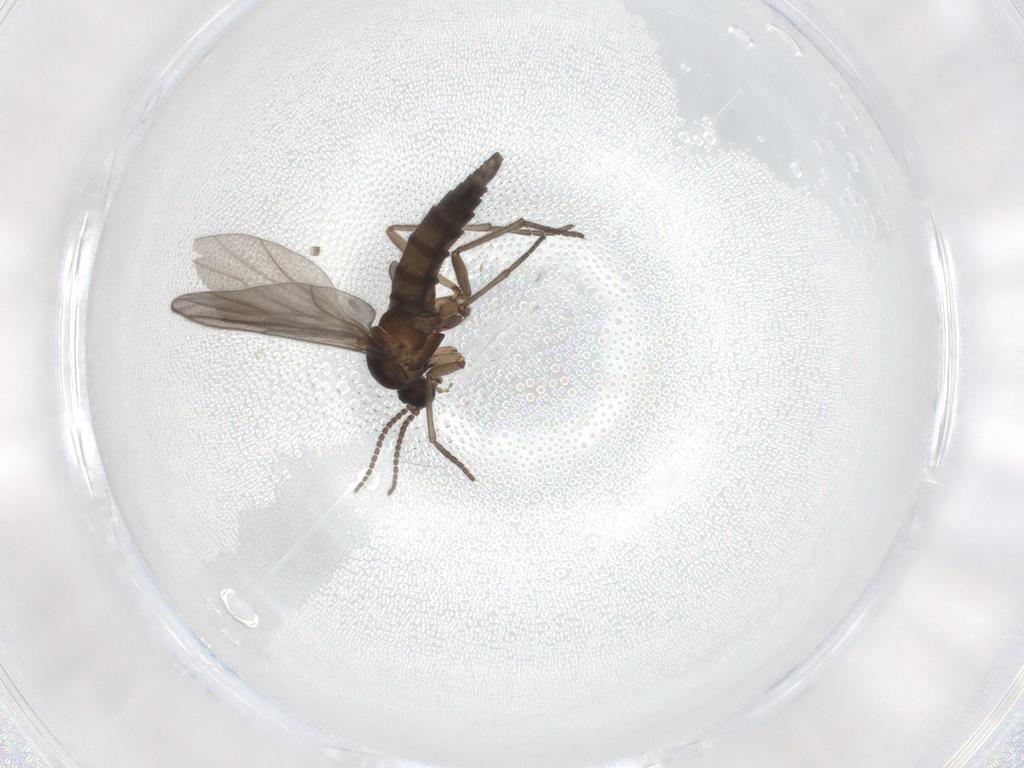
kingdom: Animalia
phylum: Arthropoda
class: Insecta
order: Diptera
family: Sciaridae
